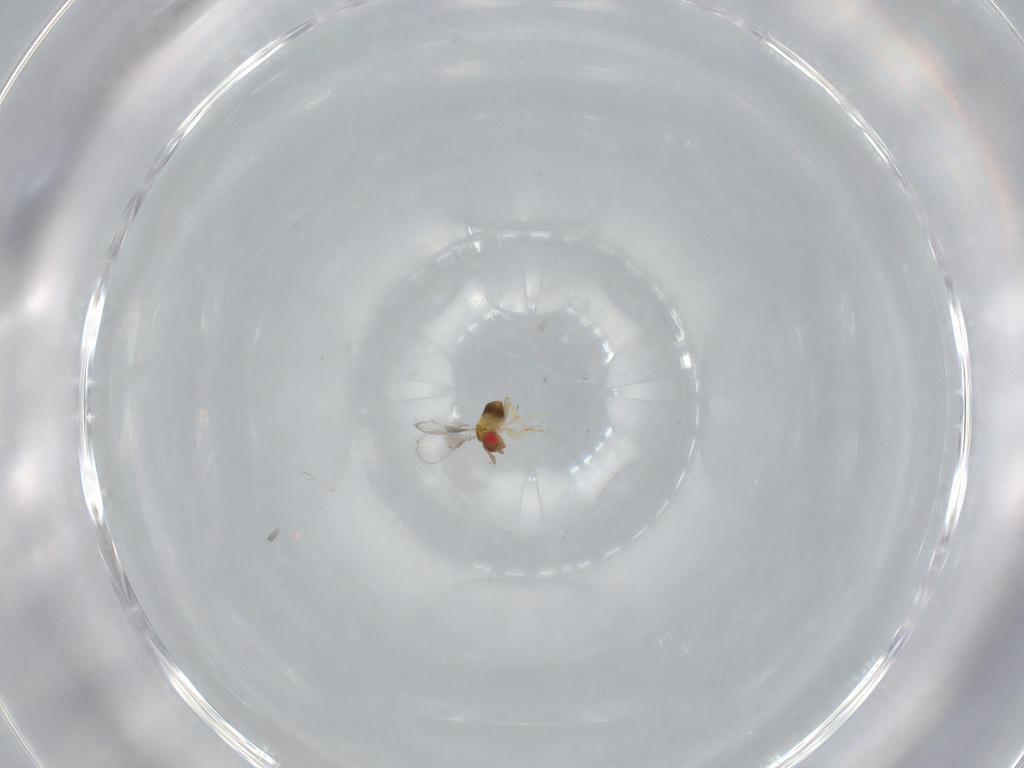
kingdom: Animalia
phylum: Arthropoda
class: Insecta
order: Hymenoptera
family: Trichogrammatidae
